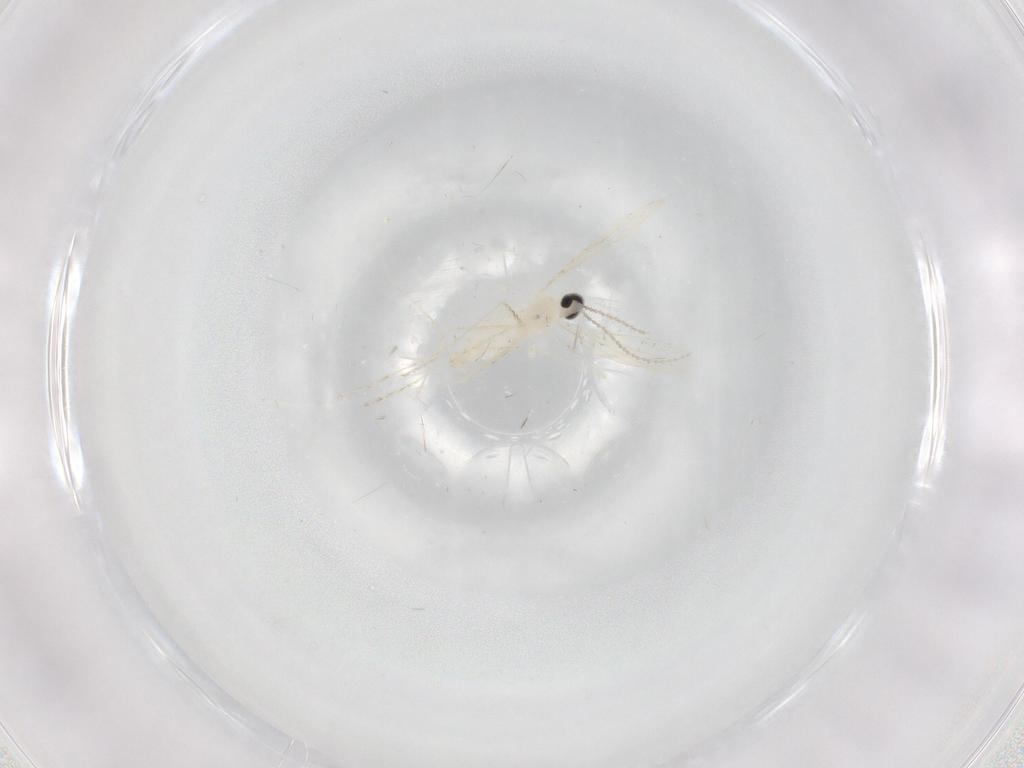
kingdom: Animalia
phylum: Arthropoda
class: Insecta
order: Diptera
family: Cecidomyiidae
